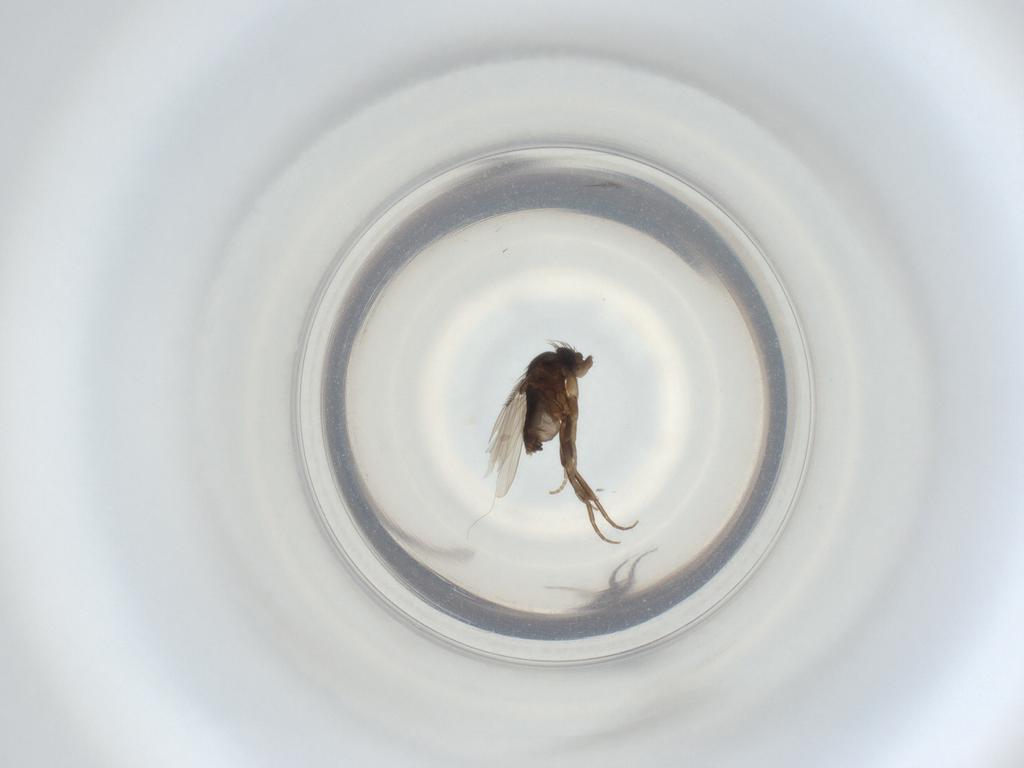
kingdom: Animalia
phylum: Arthropoda
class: Insecta
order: Diptera
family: Phoridae
